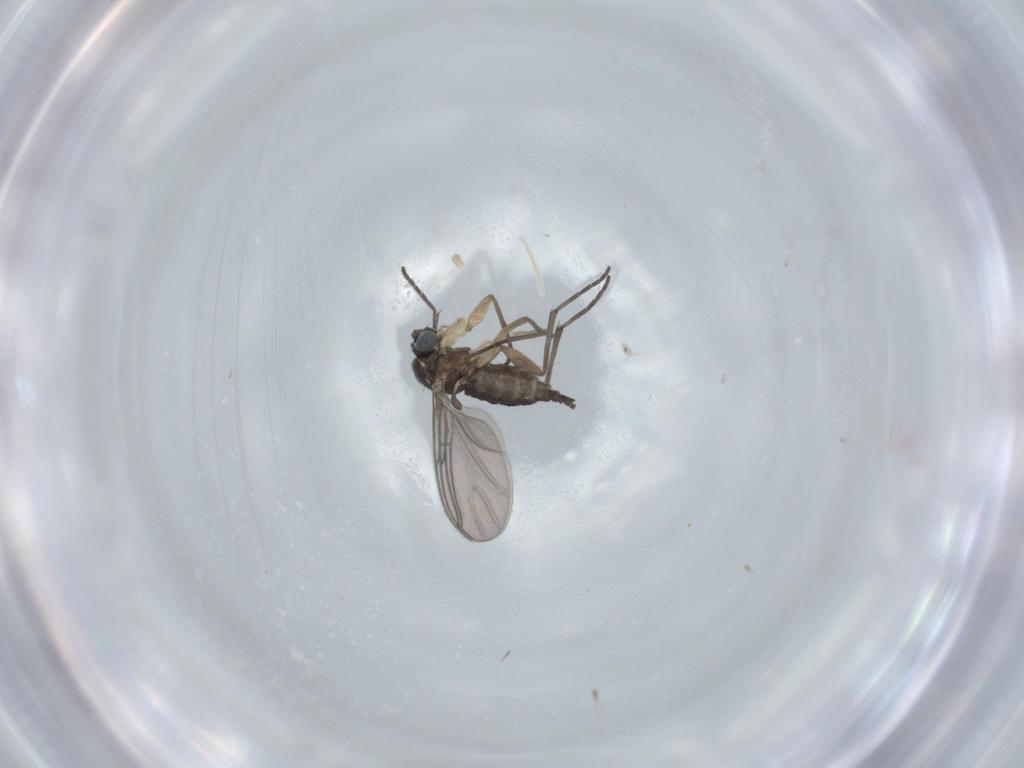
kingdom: Animalia
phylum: Arthropoda
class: Insecta
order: Diptera
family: Sciaridae
